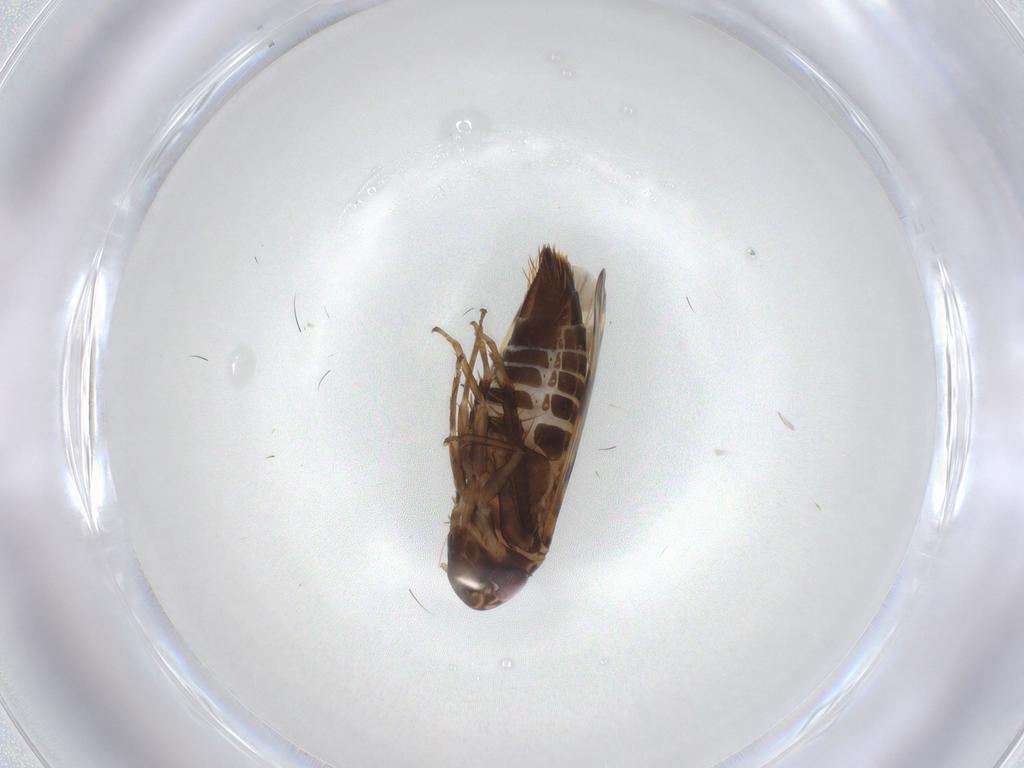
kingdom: Animalia
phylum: Arthropoda
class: Insecta
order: Hemiptera
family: Cicadellidae
